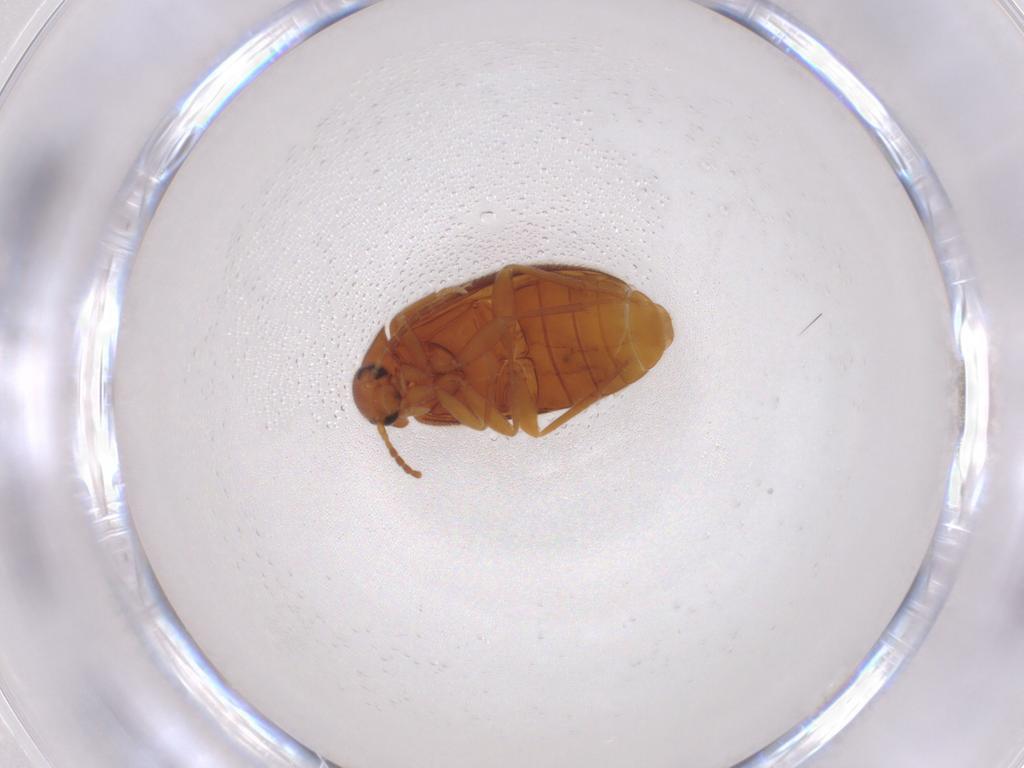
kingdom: Animalia
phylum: Arthropoda
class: Insecta
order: Coleoptera
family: Scraptiidae
